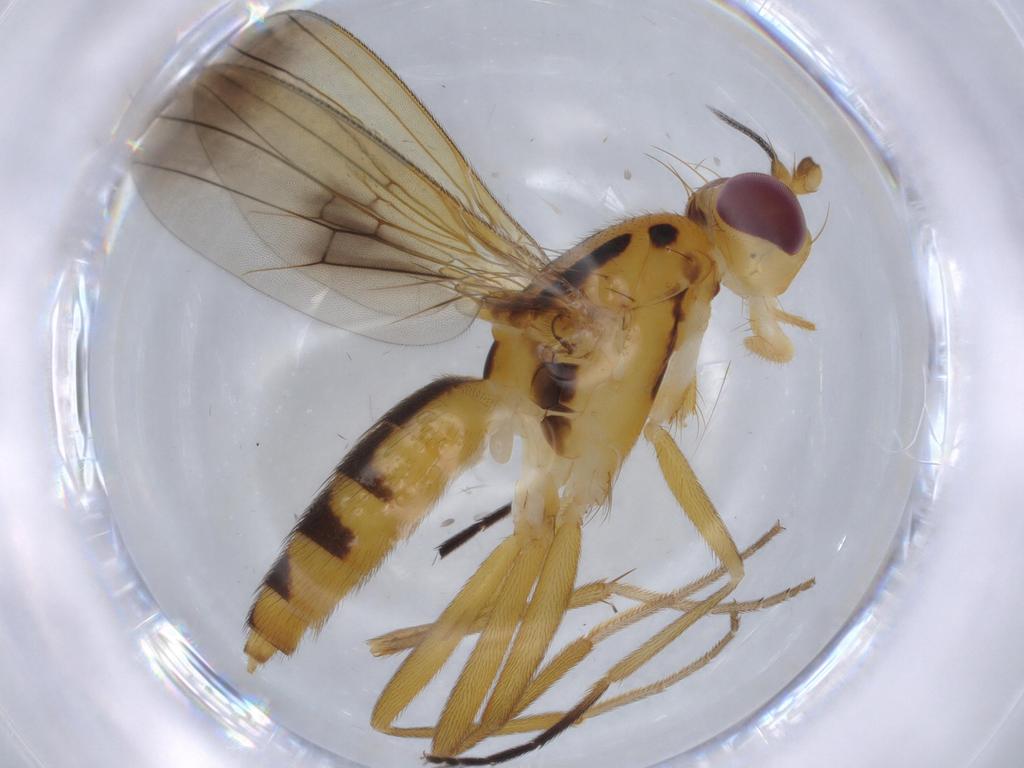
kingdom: Animalia
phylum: Arthropoda
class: Insecta
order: Diptera
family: Clusiidae
